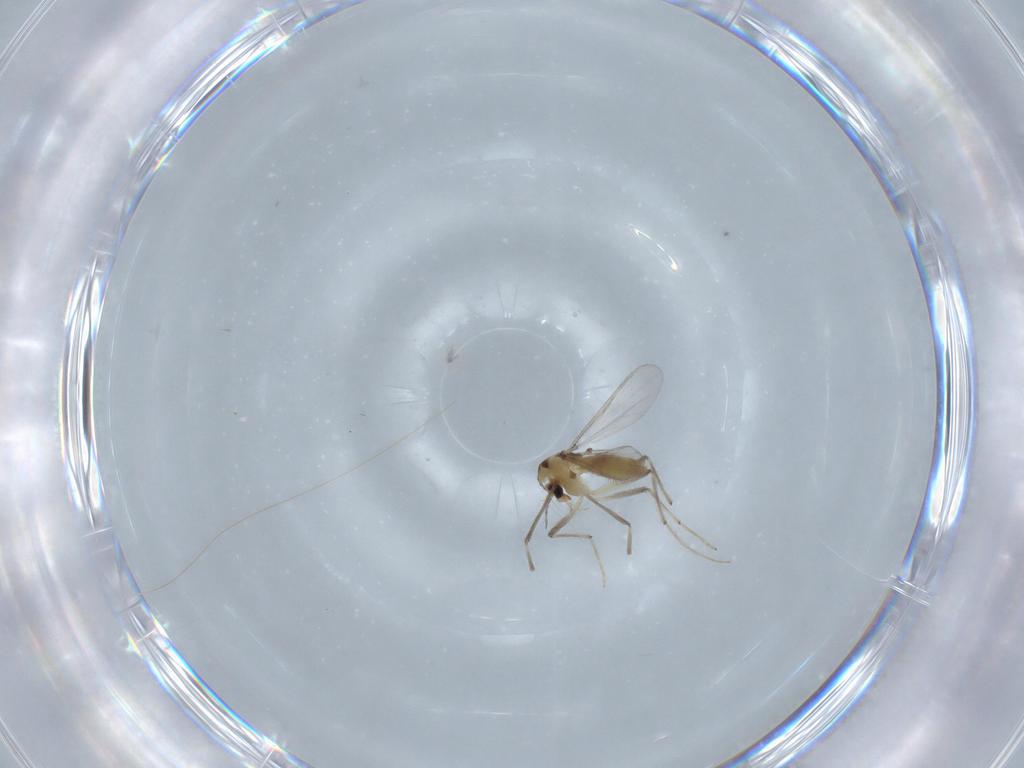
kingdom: Animalia
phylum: Arthropoda
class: Insecta
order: Diptera
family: Chironomidae
